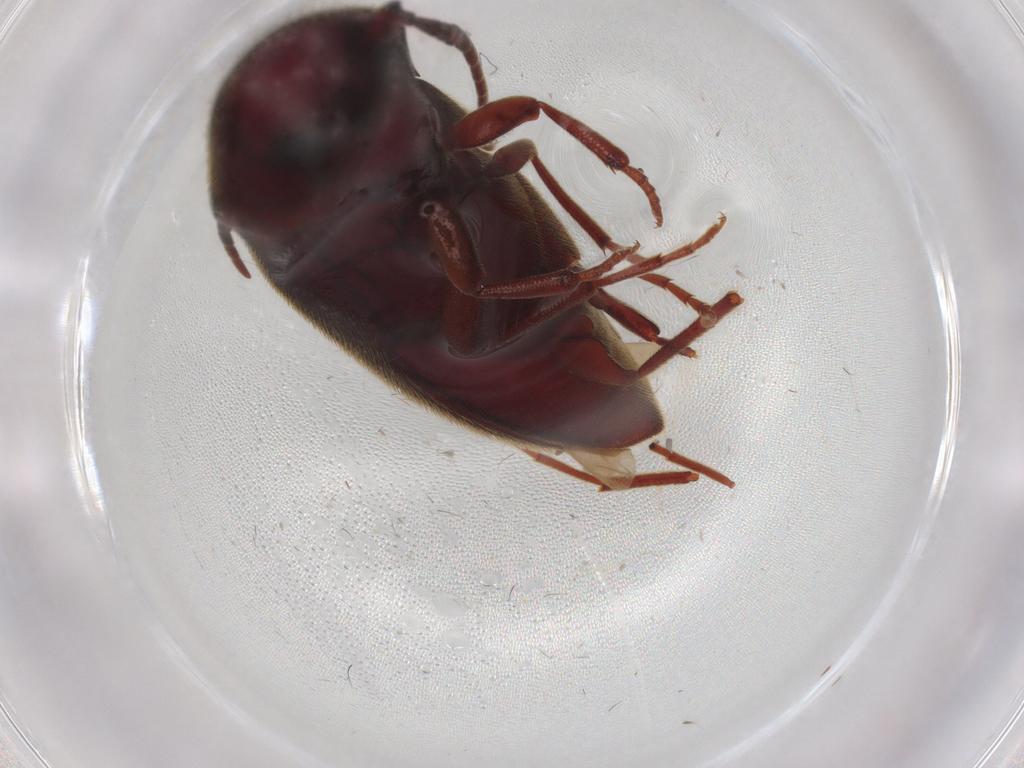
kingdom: Animalia
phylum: Arthropoda
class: Insecta
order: Coleoptera
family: Eucnemidae
